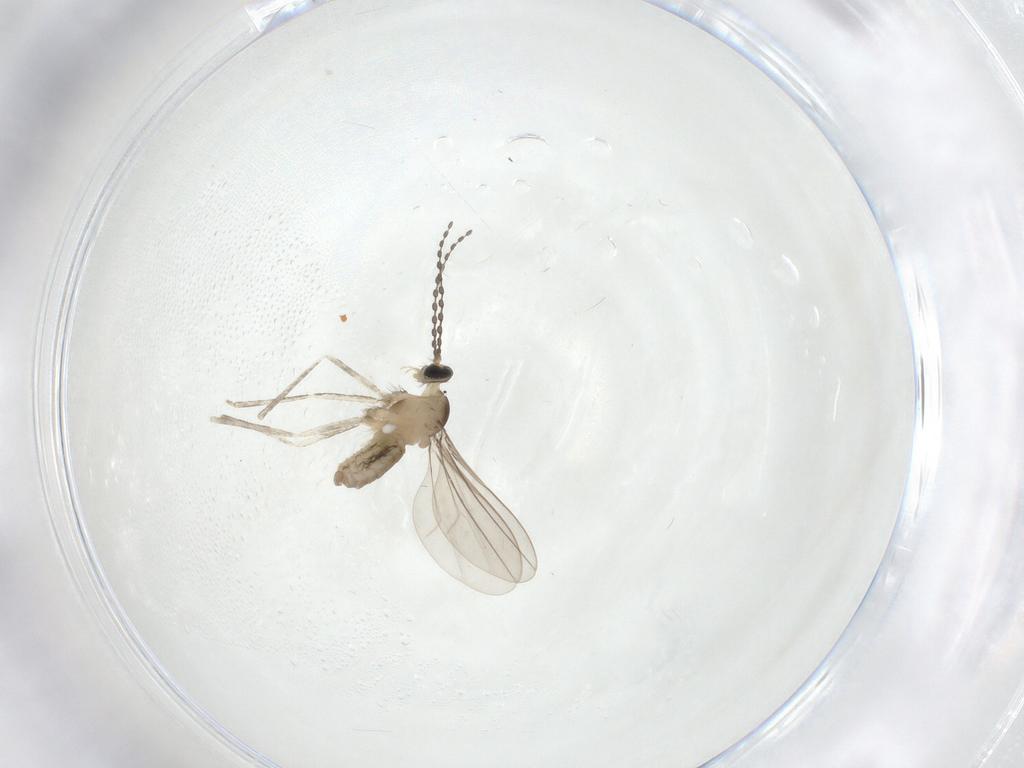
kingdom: Animalia
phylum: Arthropoda
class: Insecta
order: Diptera
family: Cecidomyiidae
